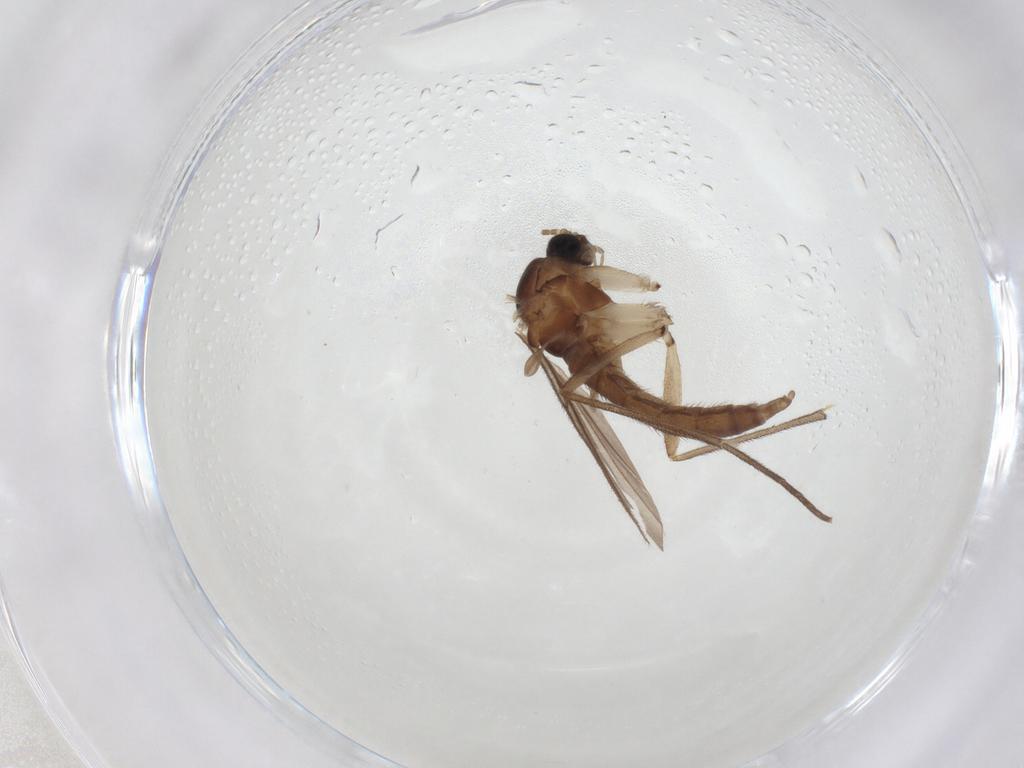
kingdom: Animalia
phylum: Arthropoda
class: Insecta
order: Diptera
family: Sciaridae
